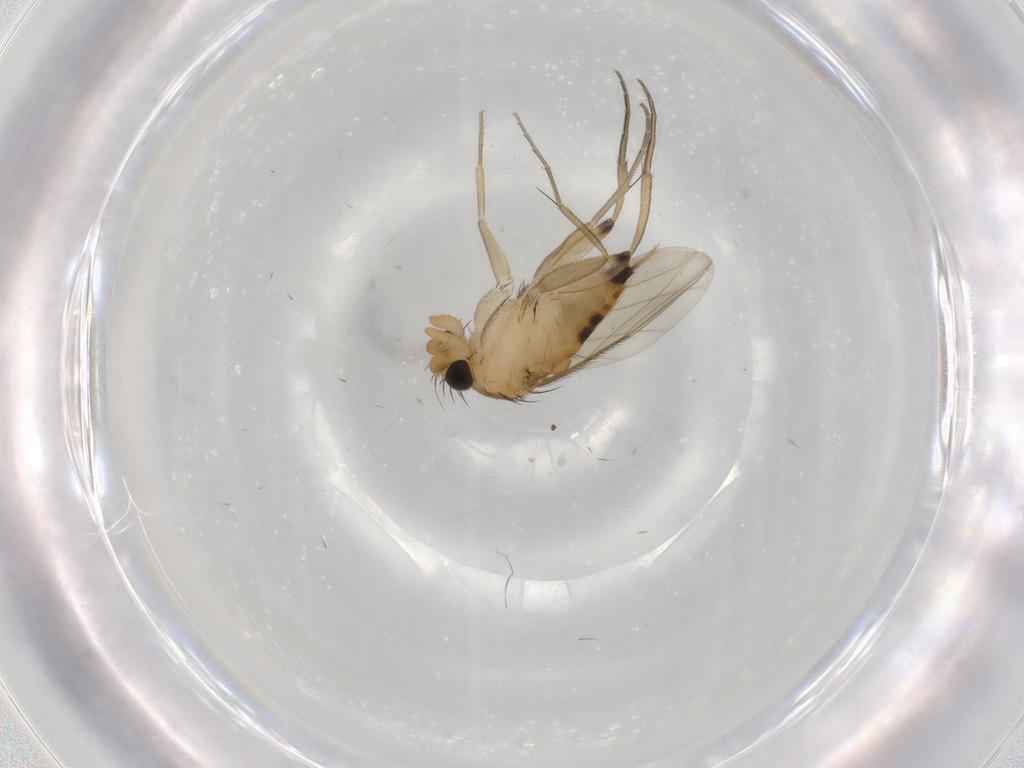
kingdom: Animalia
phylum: Arthropoda
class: Insecta
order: Diptera
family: Phoridae
